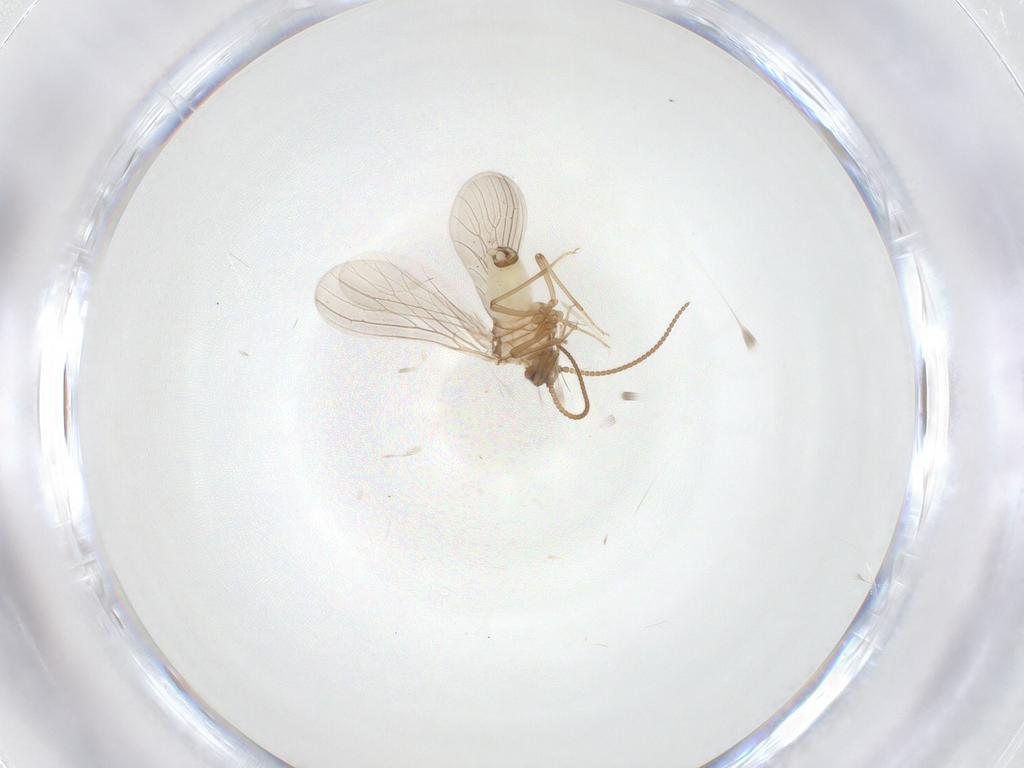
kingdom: Animalia
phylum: Arthropoda
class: Insecta
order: Neuroptera
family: Coniopterygidae
